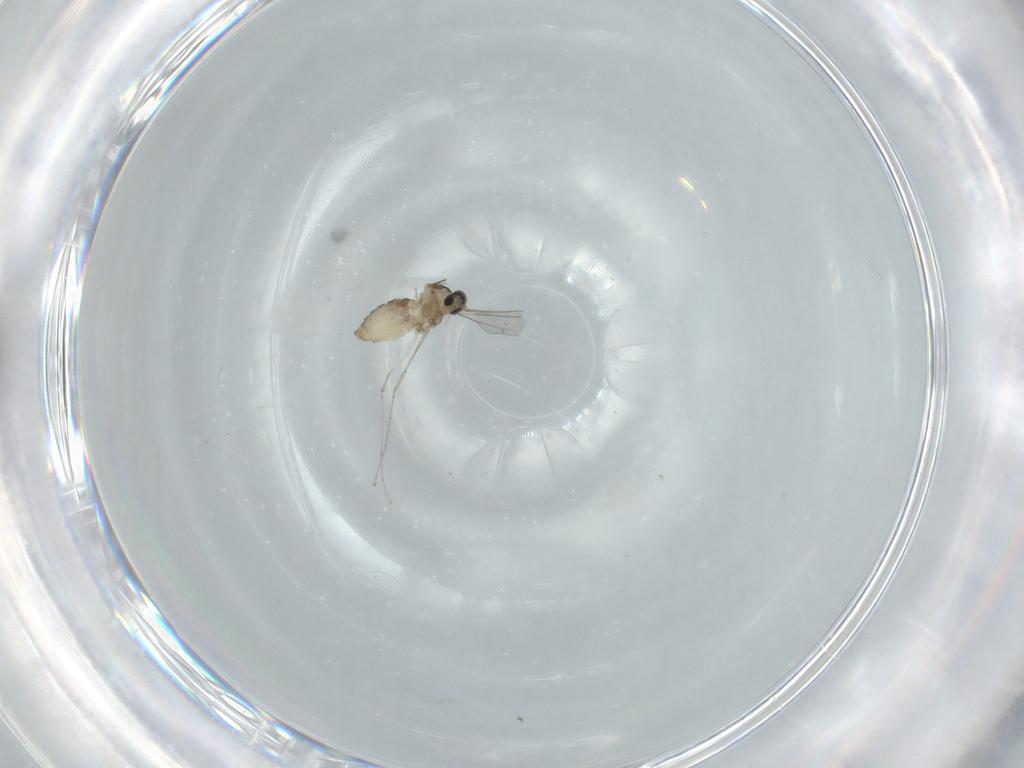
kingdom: Animalia
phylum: Arthropoda
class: Insecta
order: Diptera
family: Cecidomyiidae
